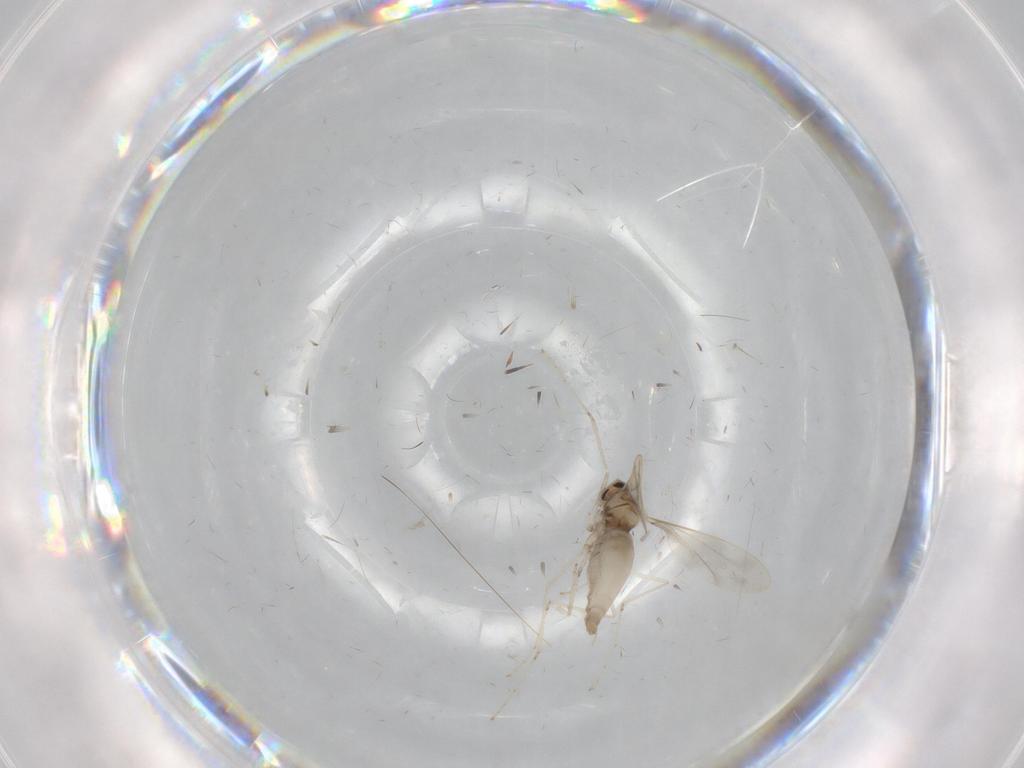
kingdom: Animalia
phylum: Arthropoda
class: Insecta
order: Diptera
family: Cecidomyiidae
